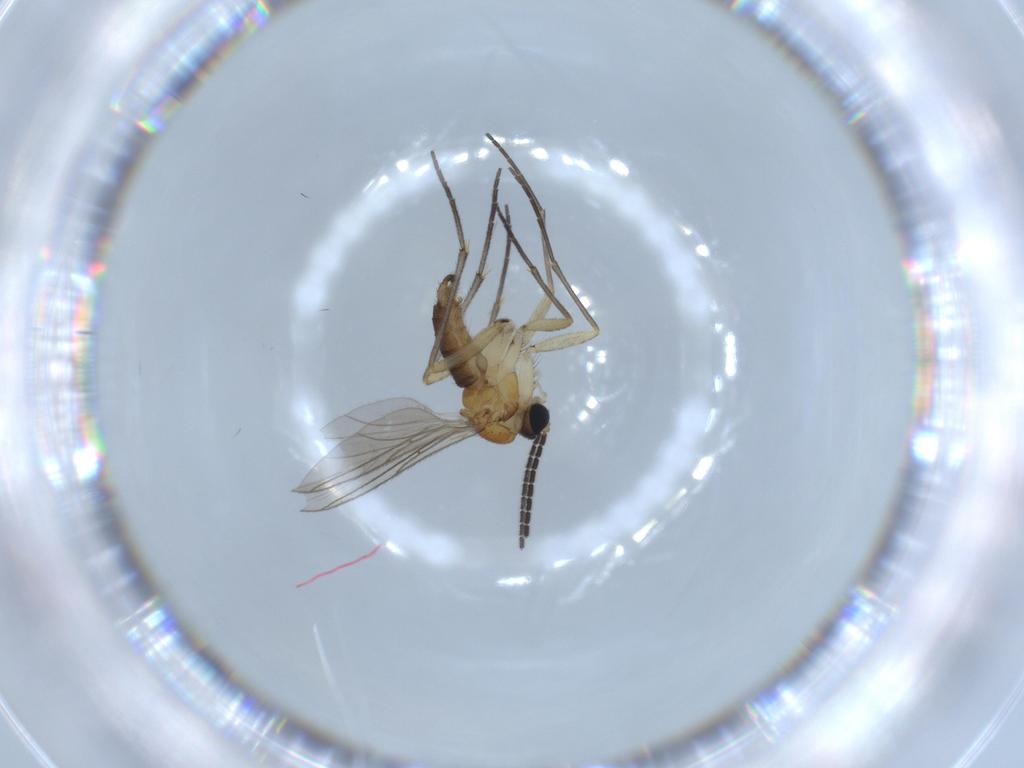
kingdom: Animalia
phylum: Arthropoda
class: Insecta
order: Diptera
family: Sciaridae
